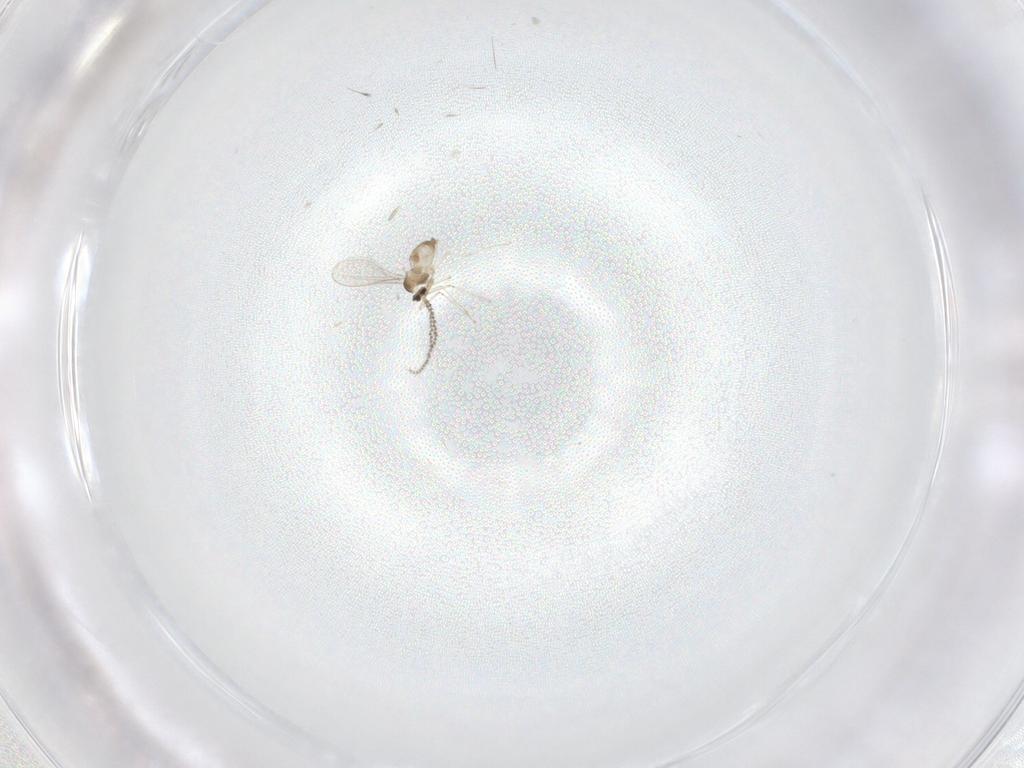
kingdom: Animalia
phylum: Arthropoda
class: Insecta
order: Diptera
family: Cecidomyiidae
